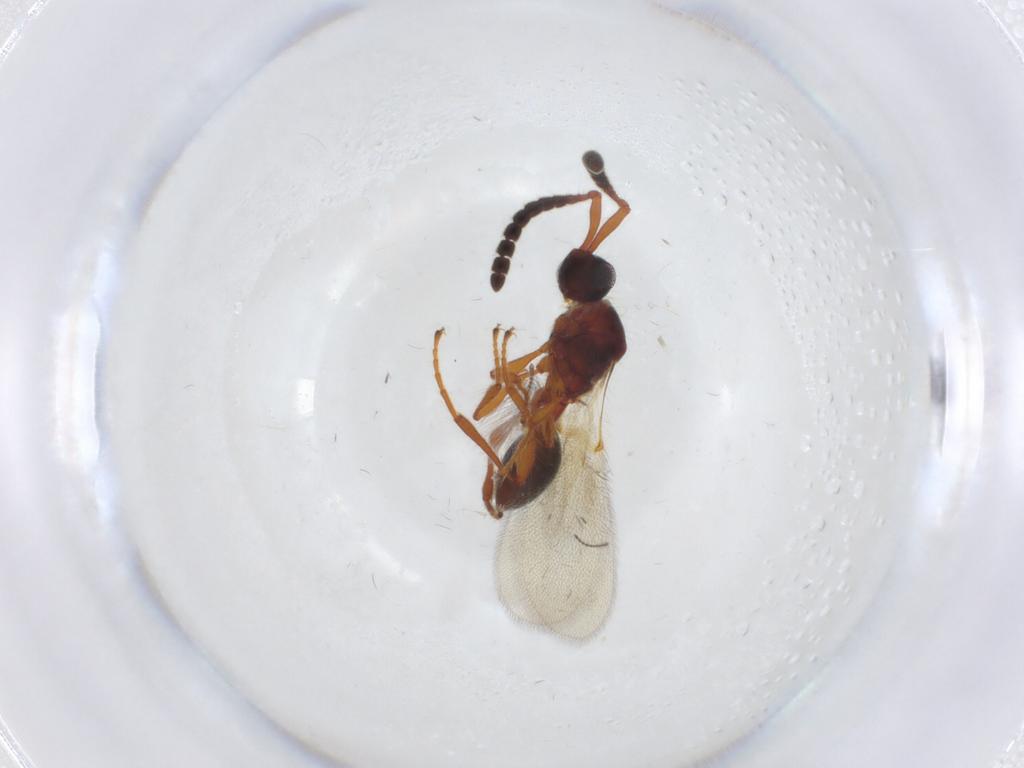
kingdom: Animalia
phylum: Arthropoda
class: Insecta
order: Hymenoptera
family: Diapriidae
